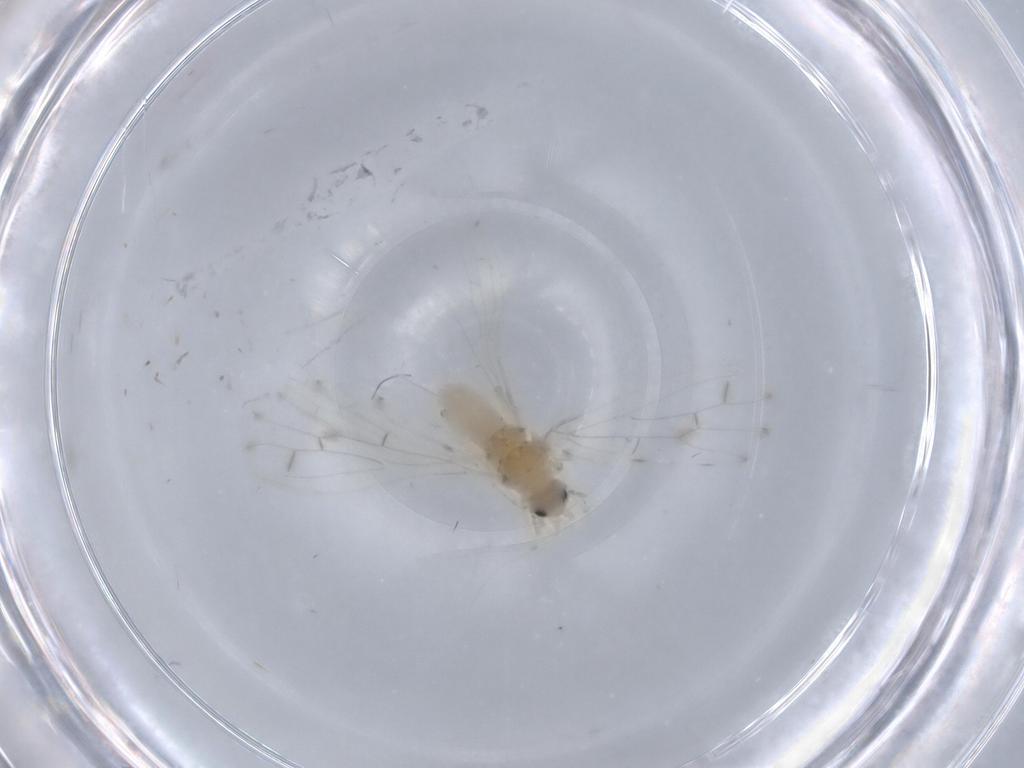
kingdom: Animalia
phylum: Arthropoda
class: Insecta
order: Neuroptera
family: Coniopterygidae
